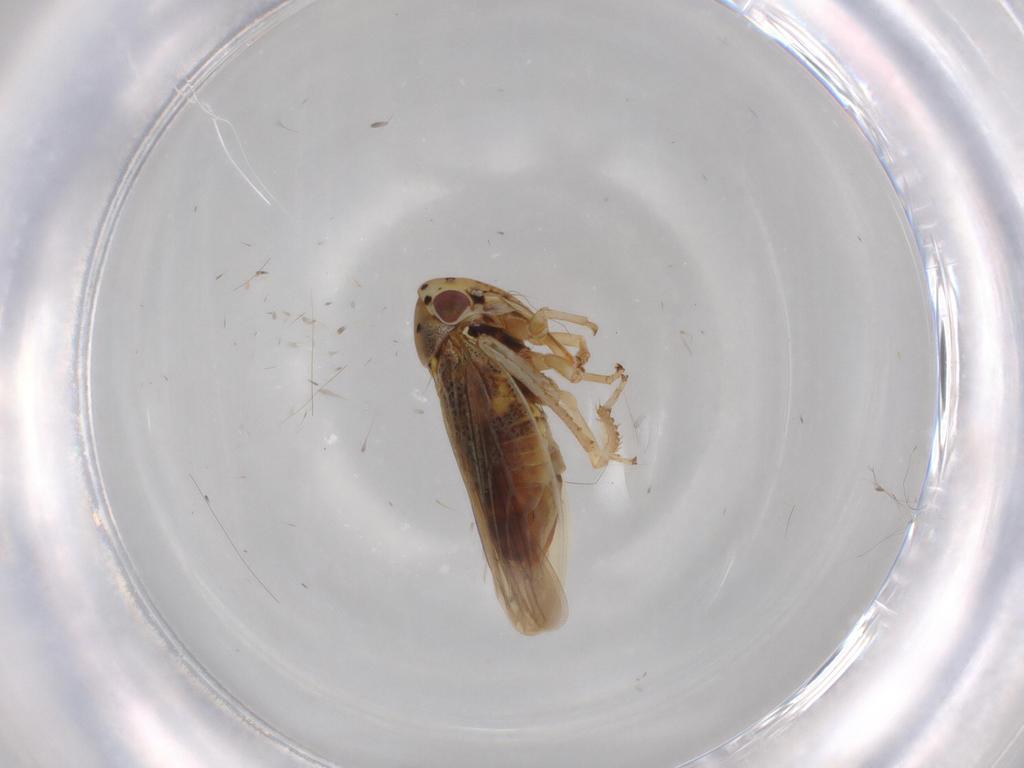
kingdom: Animalia
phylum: Arthropoda
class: Insecta
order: Hemiptera
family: Cicadellidae
